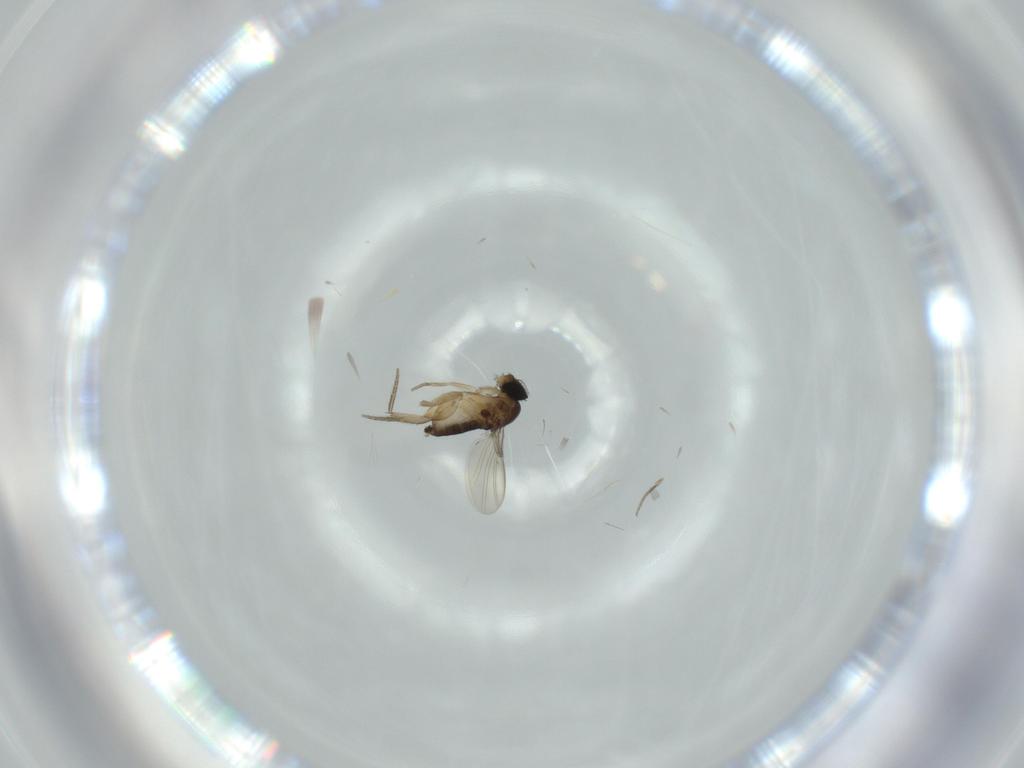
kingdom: Animalia
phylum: Arthropoda
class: Insecta
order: Diptera
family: Phoridae
